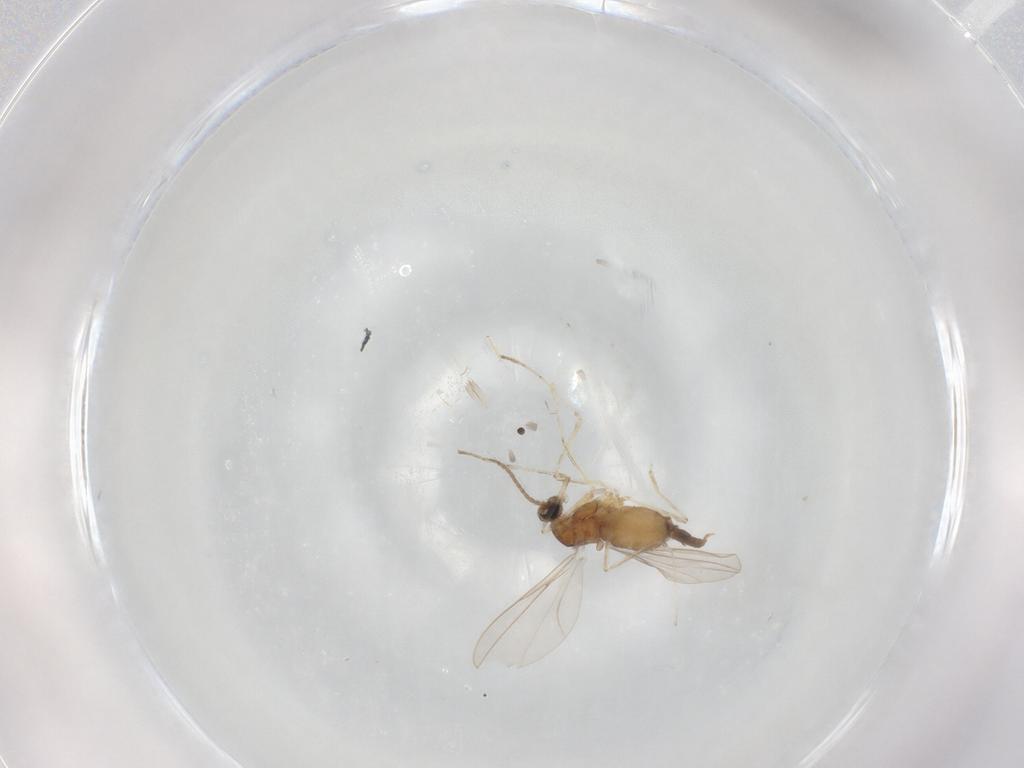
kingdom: Animalia
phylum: Arthropoda
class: Insecta
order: Diptera
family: Cecidomyiidae
